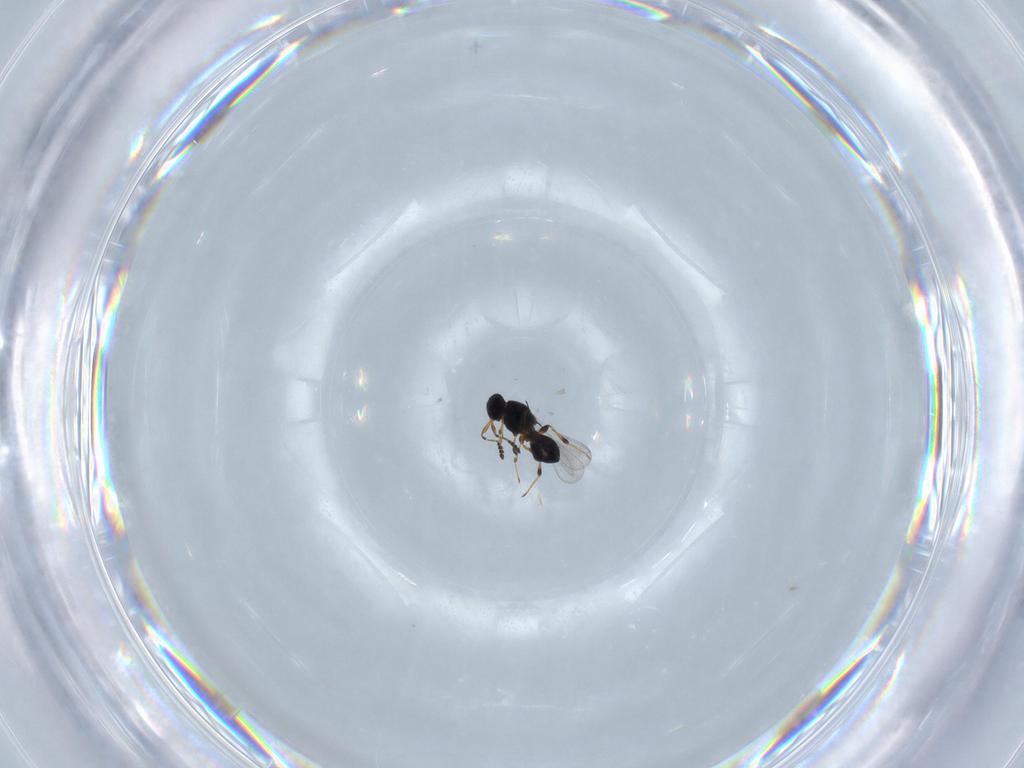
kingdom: Animalia
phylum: Arthropoda
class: Insecta
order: Hymenoptera
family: Platygastridae
